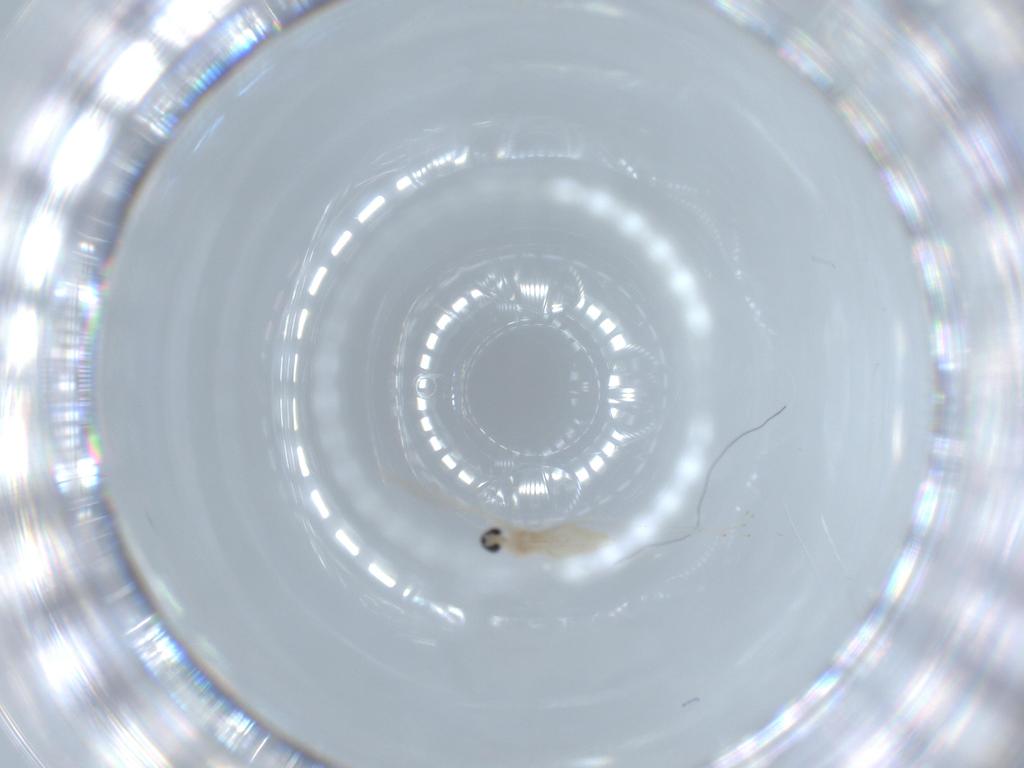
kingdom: Animalia
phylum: Arthropoda
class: Insecta
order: Diptera
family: Cecidomyiidae
